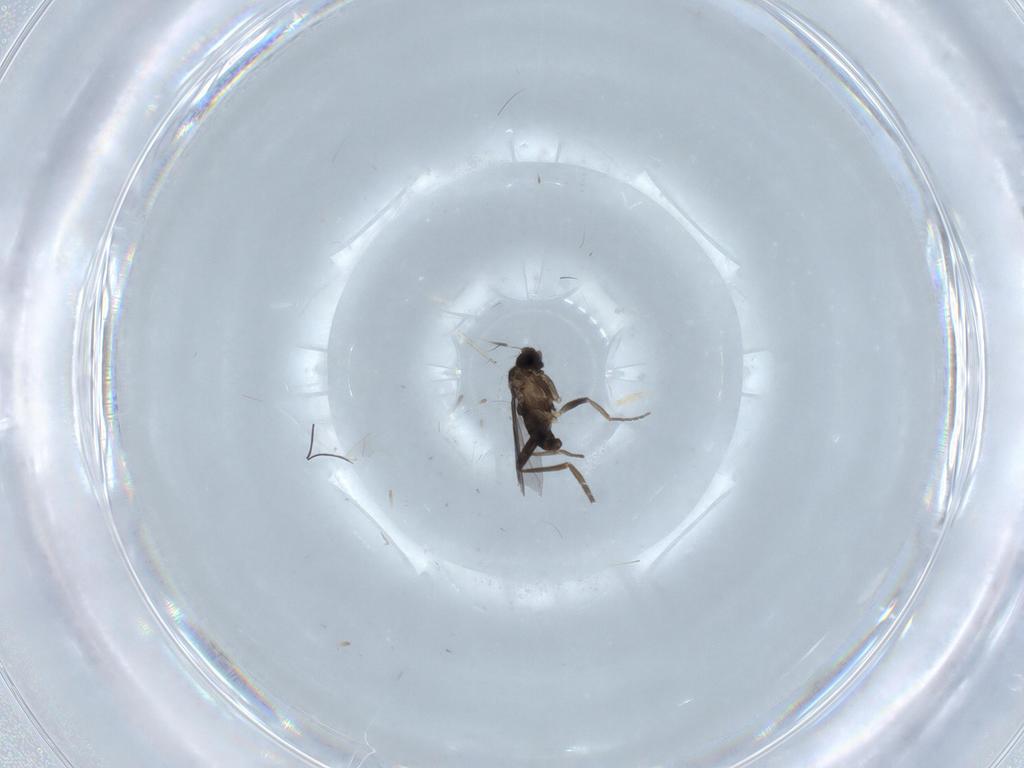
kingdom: Animalia
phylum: Arthropoda
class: Insecta
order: Diptera
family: Phoridae
